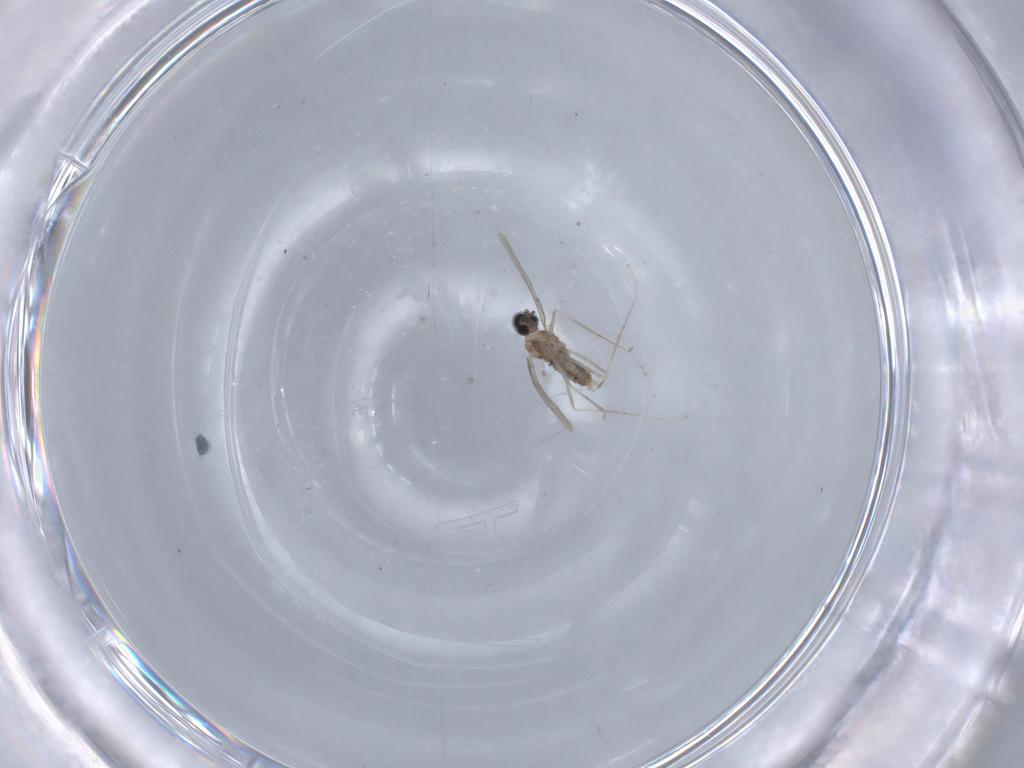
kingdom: Animalia
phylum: Arthropoda
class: Insecta
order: Diptera
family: Cecidomyiidae
